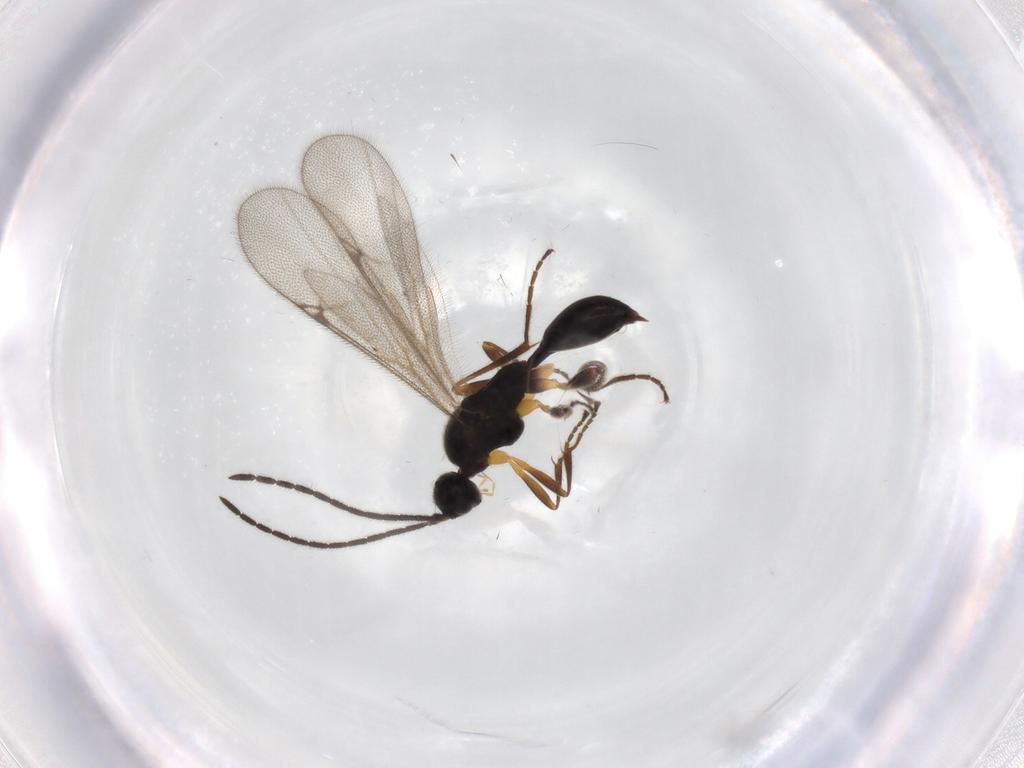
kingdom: Animalia
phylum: Arthropoda
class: Insecta
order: Hymenoptera
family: Proctotrupidae
